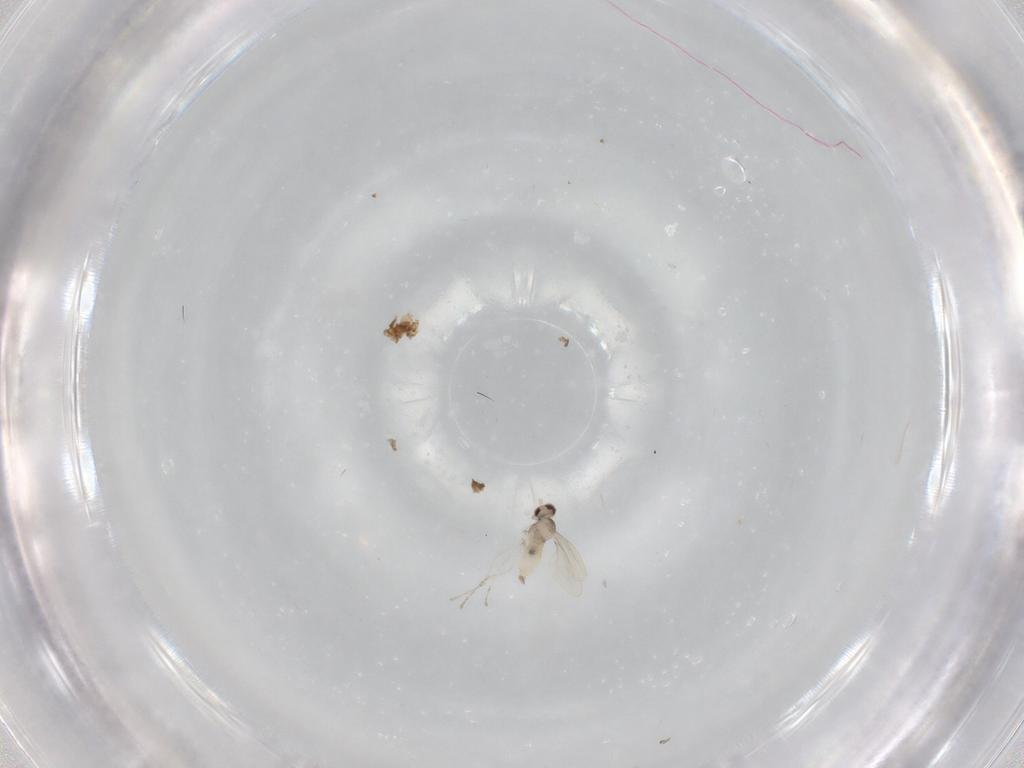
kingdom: Animalia
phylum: Arthropoda
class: Insecta
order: Diptera
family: Cecidomyiidae
